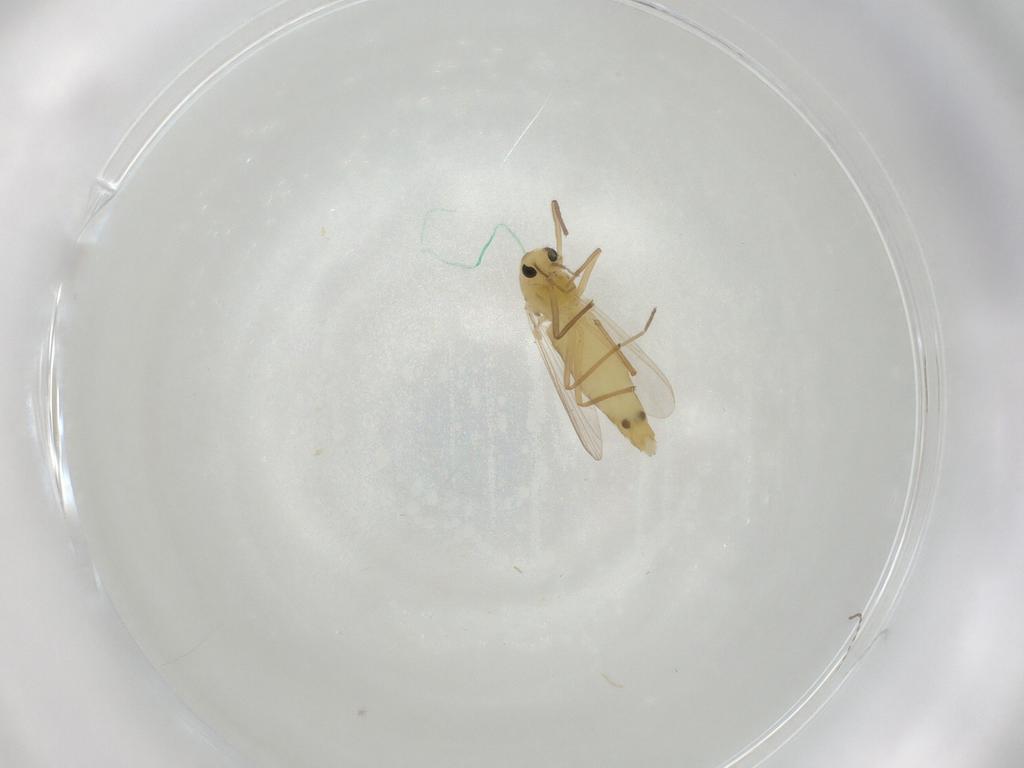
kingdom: Animalia
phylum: Arthropoda
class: Insecta
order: Diptera
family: Chironomidae
